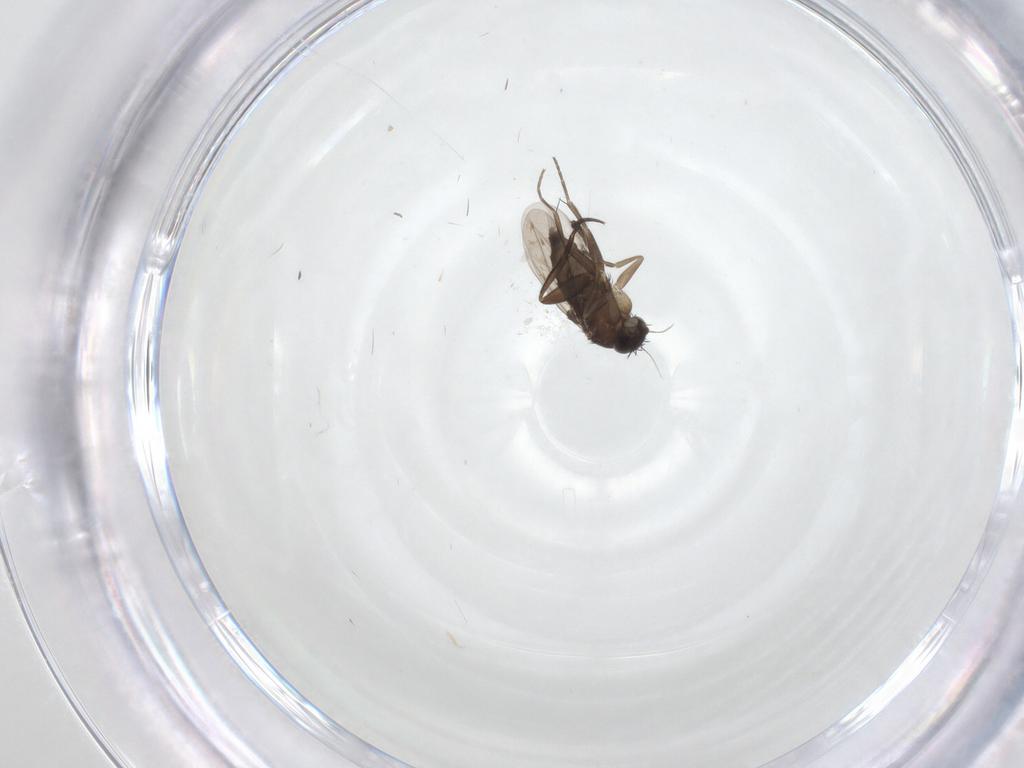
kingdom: Animalia
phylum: Arthropoda
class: Insecta
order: Diptera
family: Phoridae
